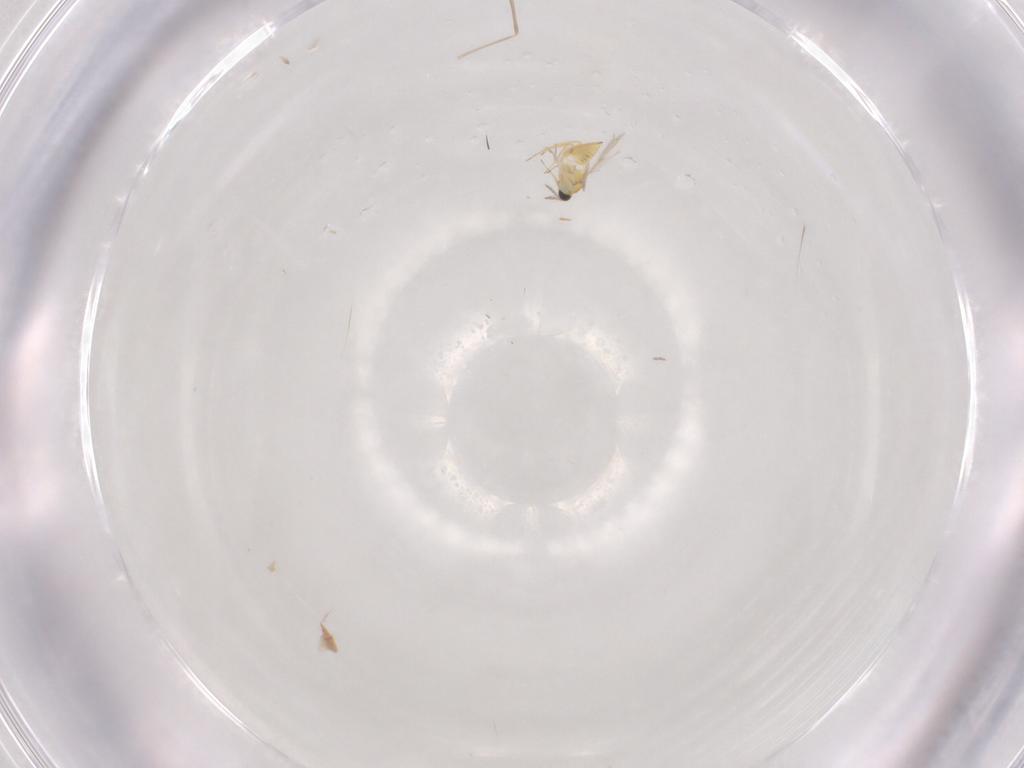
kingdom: Animalia
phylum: Arthropoda
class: Insecta
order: Hymenoptera
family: Trichogrammatidae
